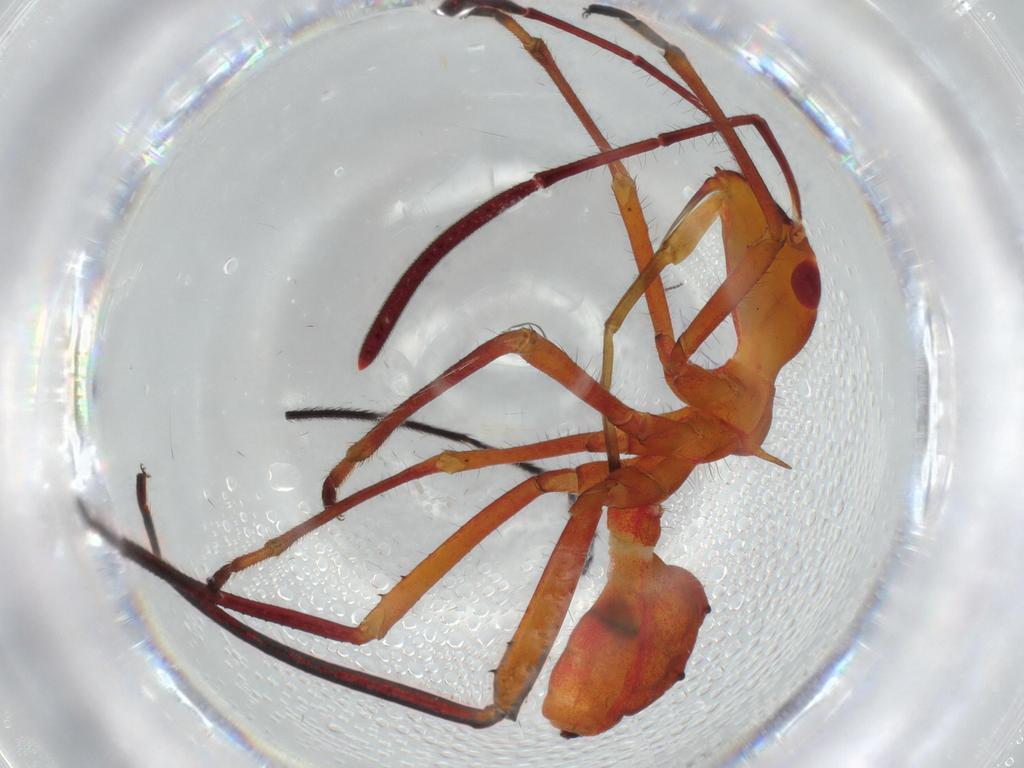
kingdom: Animalia
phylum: Arthropoda
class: Insecta
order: Hemiptera
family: Alydidae
